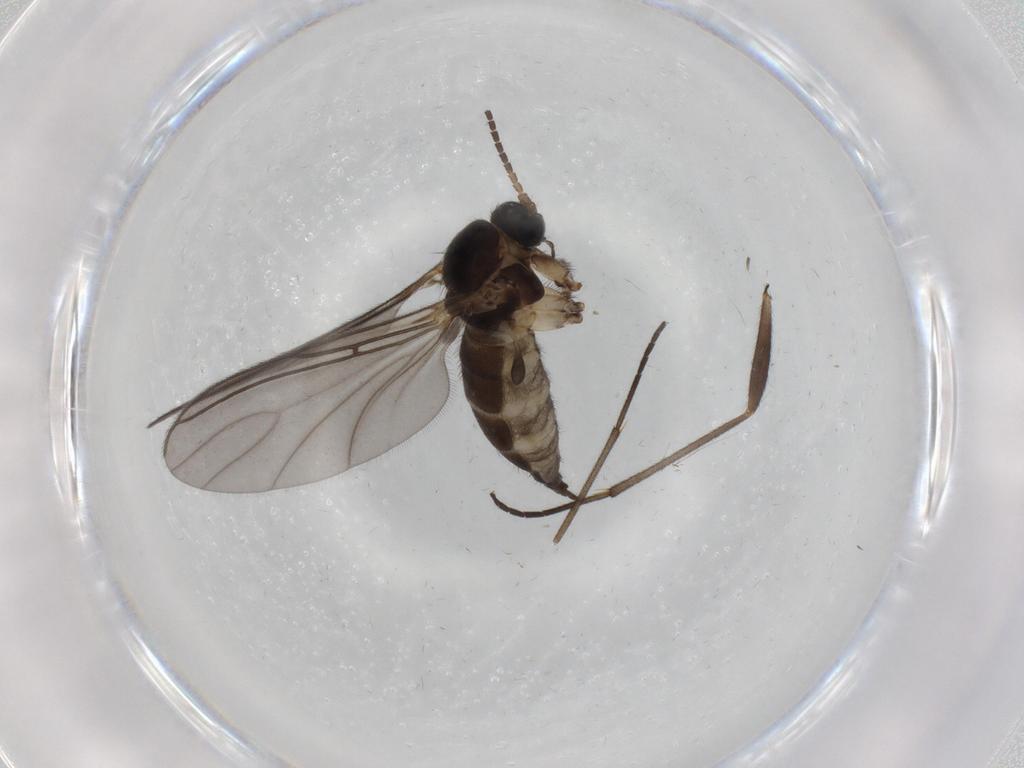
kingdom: Animalia
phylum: Arthropoda
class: Insecta
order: Diptera
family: Sciaridae
